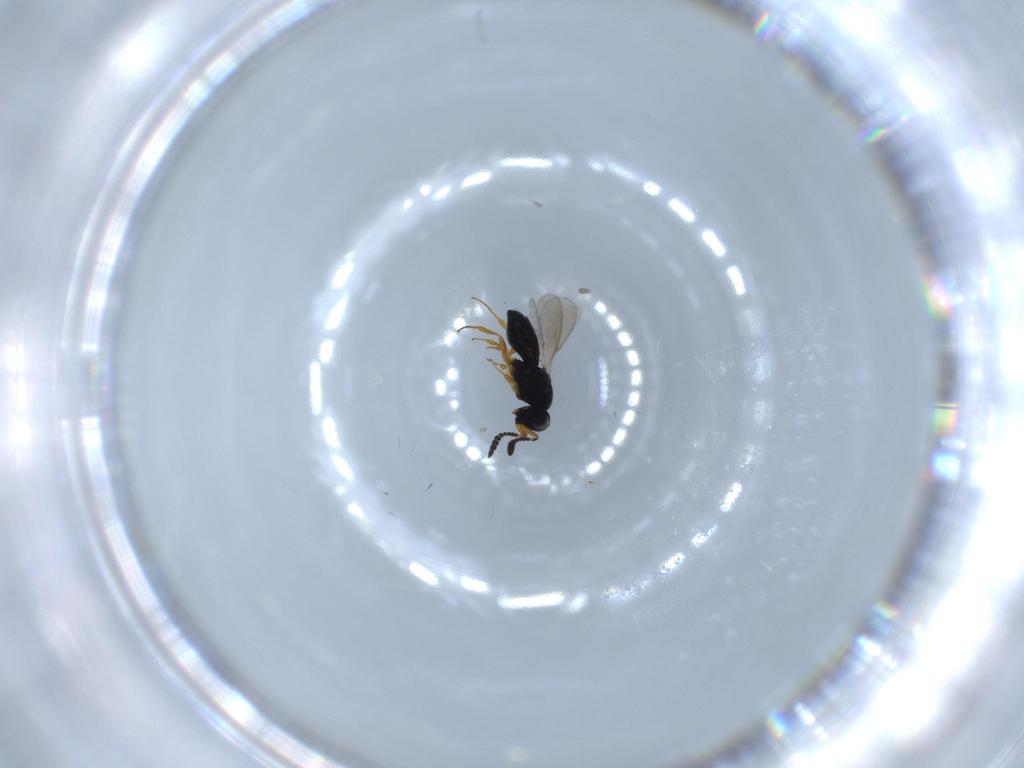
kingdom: Animalia
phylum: Arthropoda
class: Insecta
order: Hymenoptera
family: Scelionidae
